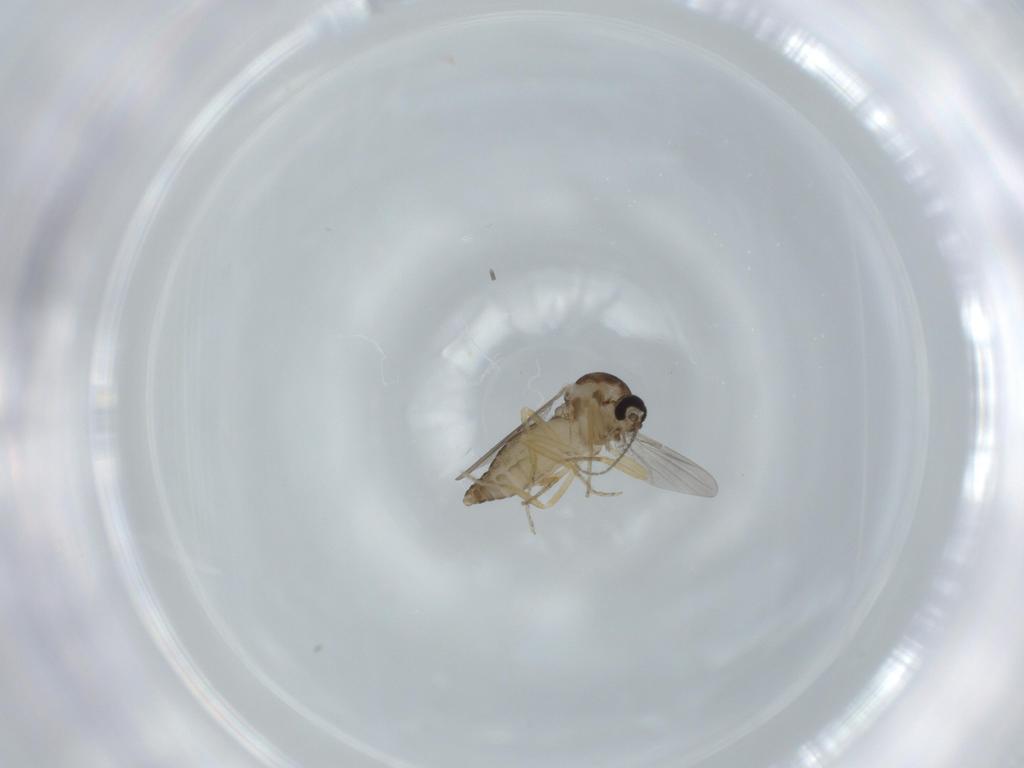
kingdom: Animalia
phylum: Arthropoda
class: Insecta
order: Diptera
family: Ceratopogonidae
